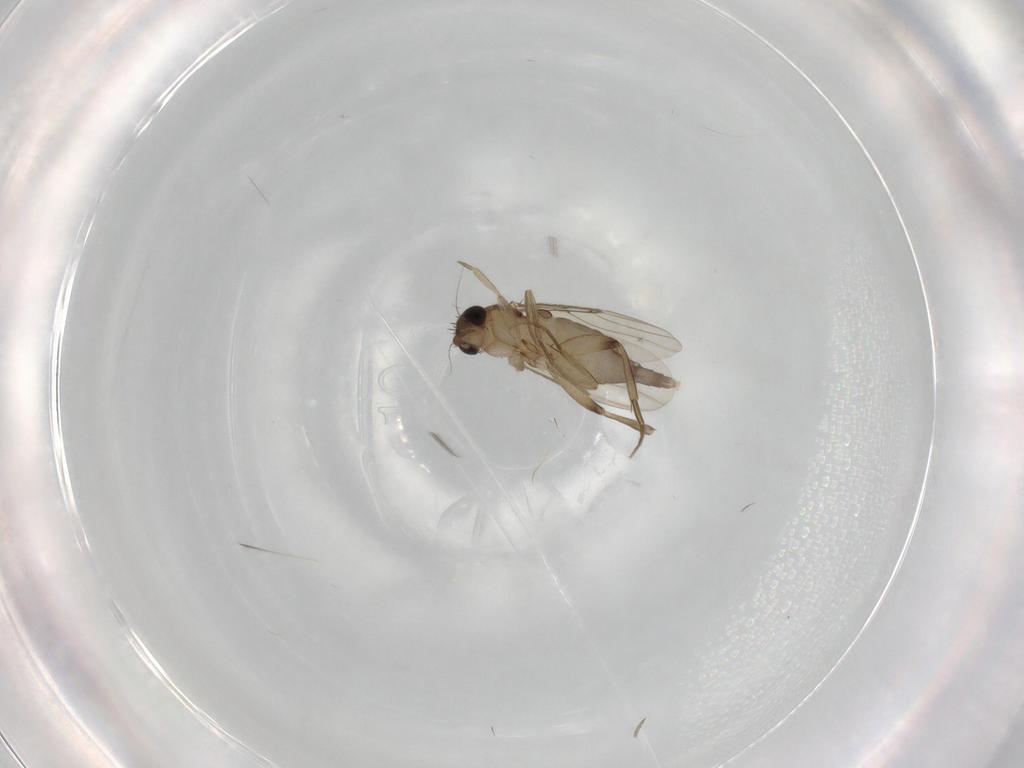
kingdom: Animalia
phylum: Arthropoda
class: Insecta
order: Diptera
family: Phoridae
